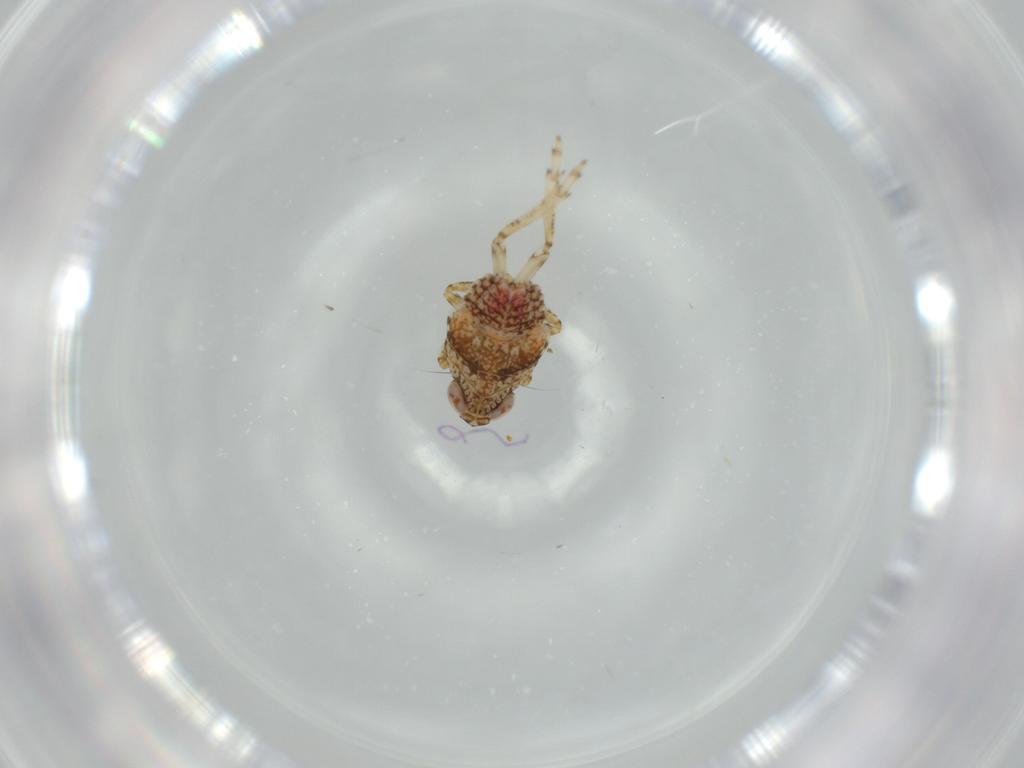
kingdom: Animalia
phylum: Arthropoda
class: Insecta
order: Hemiptera
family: Issidae
